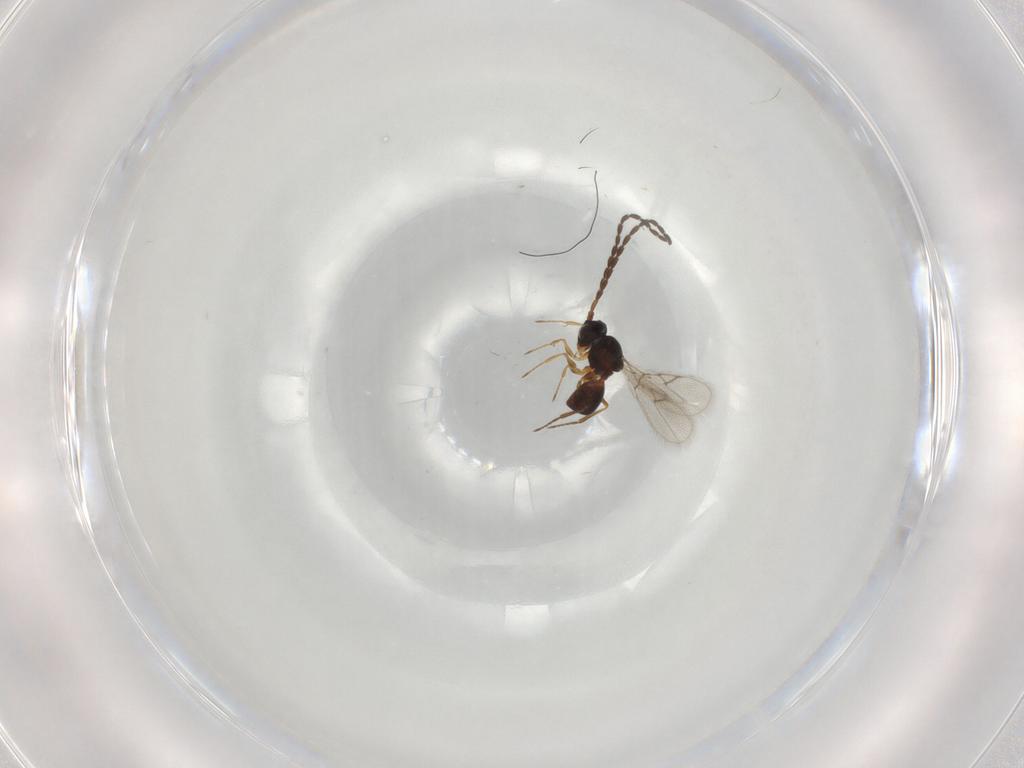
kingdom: Animalia
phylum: Arthropoda
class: Insecta
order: Hymenoptera
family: Figitidae
